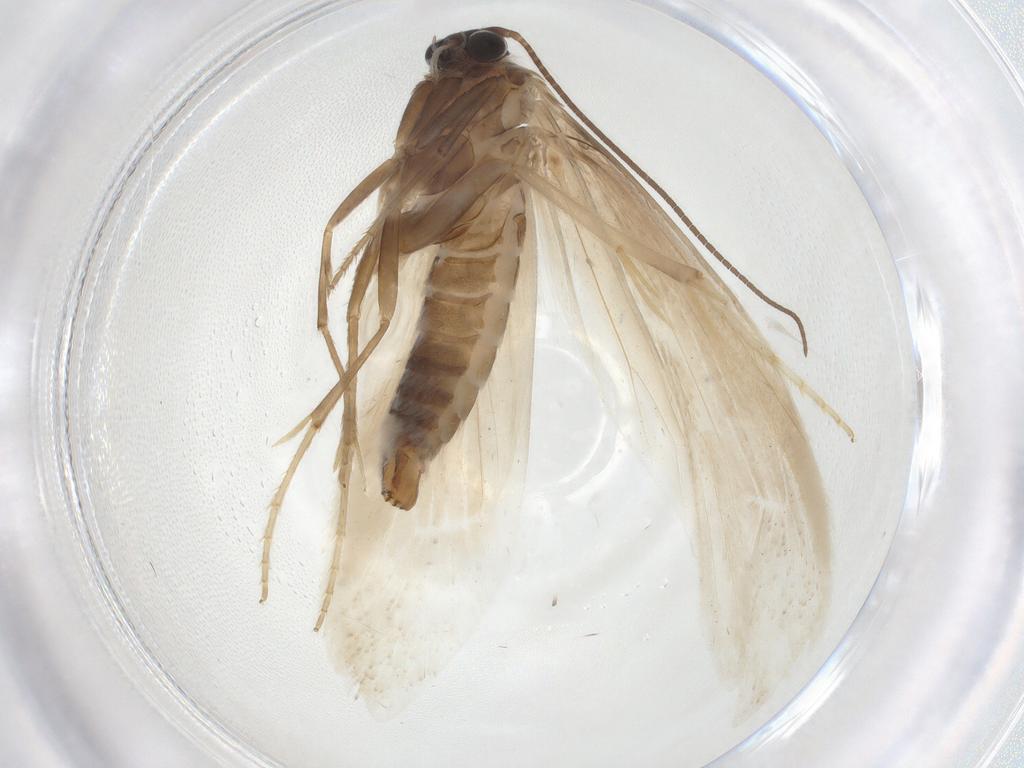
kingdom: Animalia
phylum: Arthropoda
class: Insecta
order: Lepidoptera
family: Tridentaformidae
